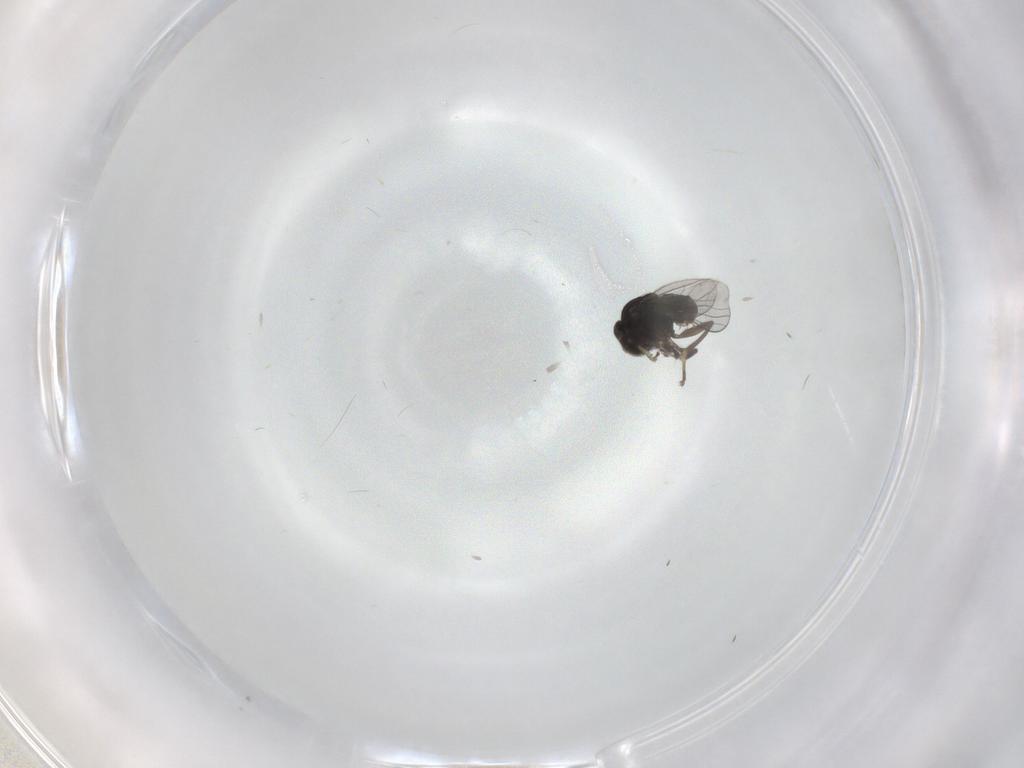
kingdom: Animalia
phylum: Arthropoda
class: Insecta
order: Diptera
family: Dolichopodidae
